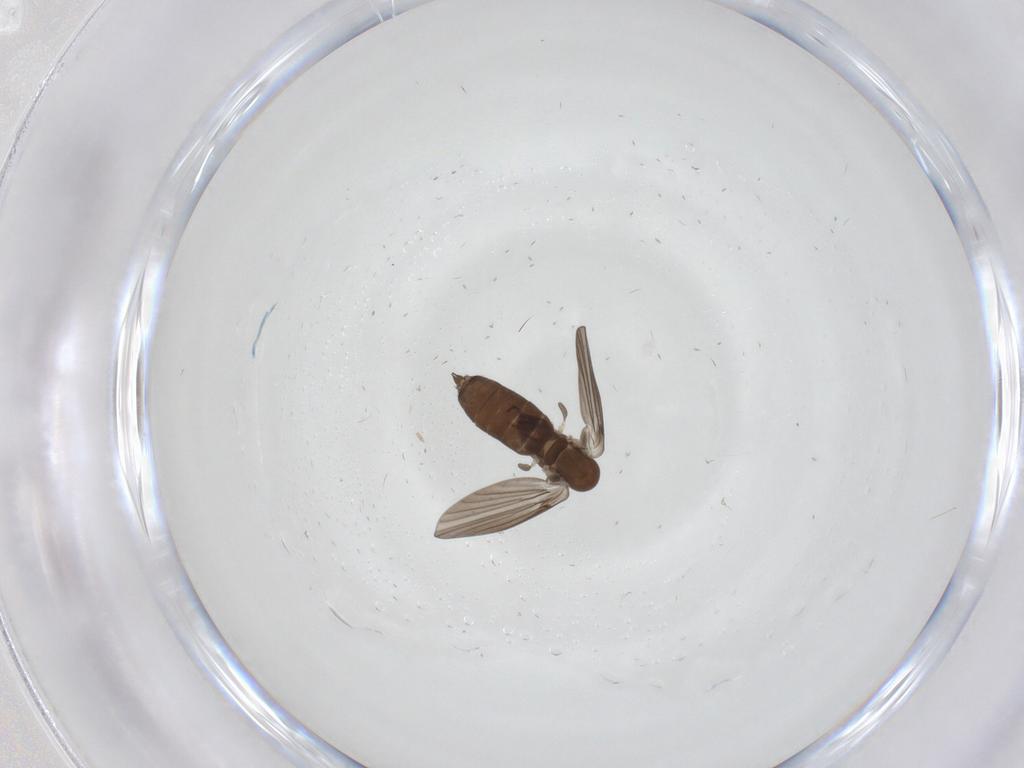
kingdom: Animalia
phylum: Arthropoda
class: Insecta
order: Diptera
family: Cecidomyiidae
